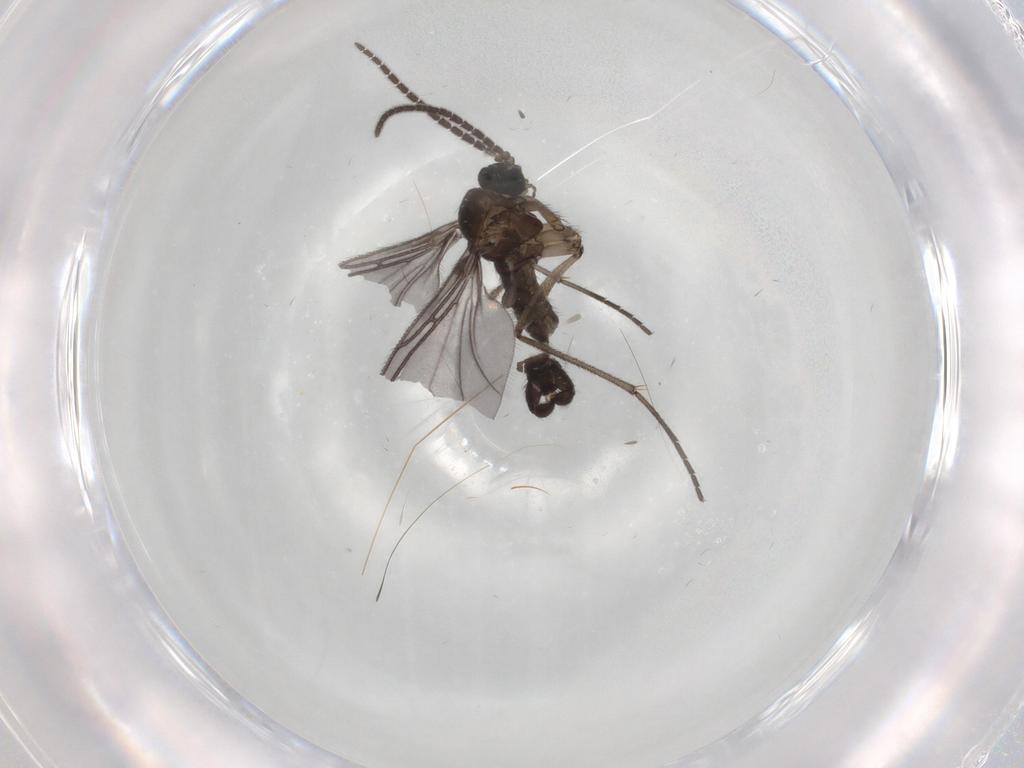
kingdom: Animalia
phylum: Arthropoda
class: Insecta
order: Diptera
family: Sciaridae
